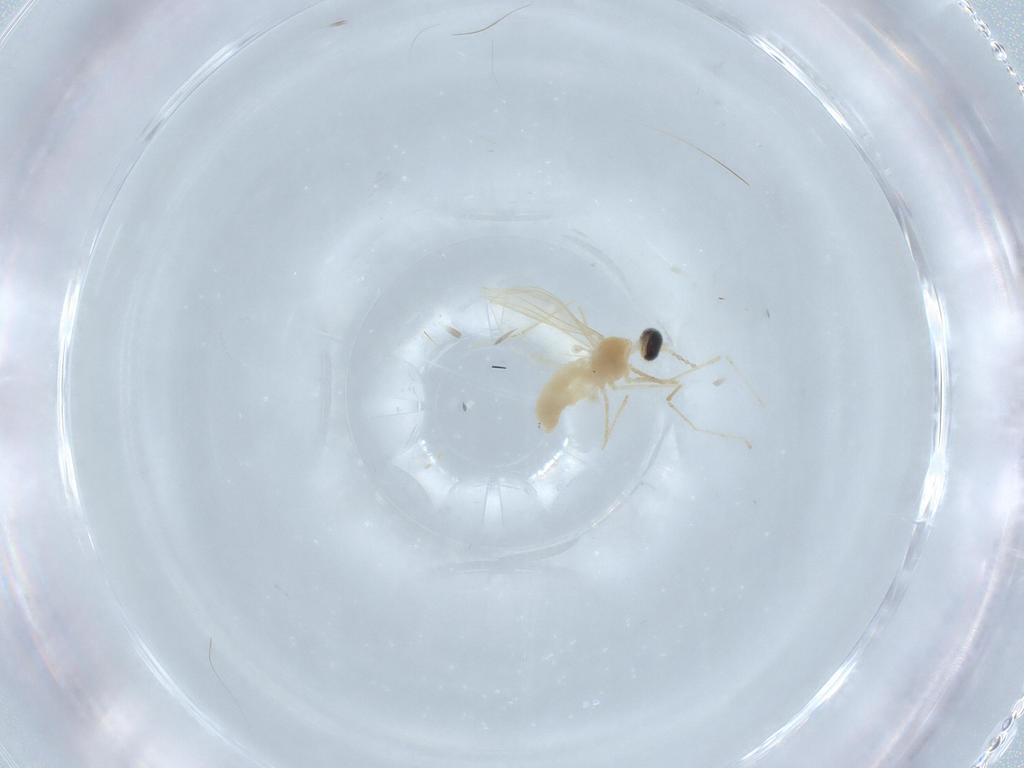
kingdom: Animalia
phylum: Arthropoda
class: Insecta
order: Diptera
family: Cecidomyiidae
